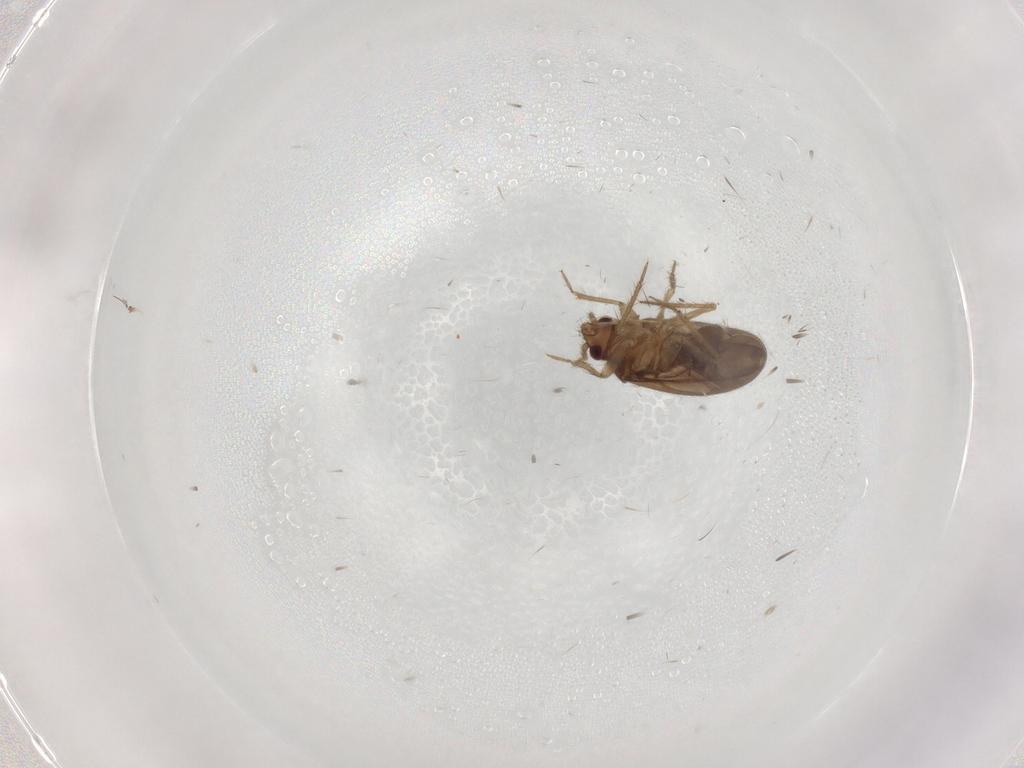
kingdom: Animalia
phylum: Arthropoda
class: Insecta
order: Hemiptera
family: Ceratocombidae
